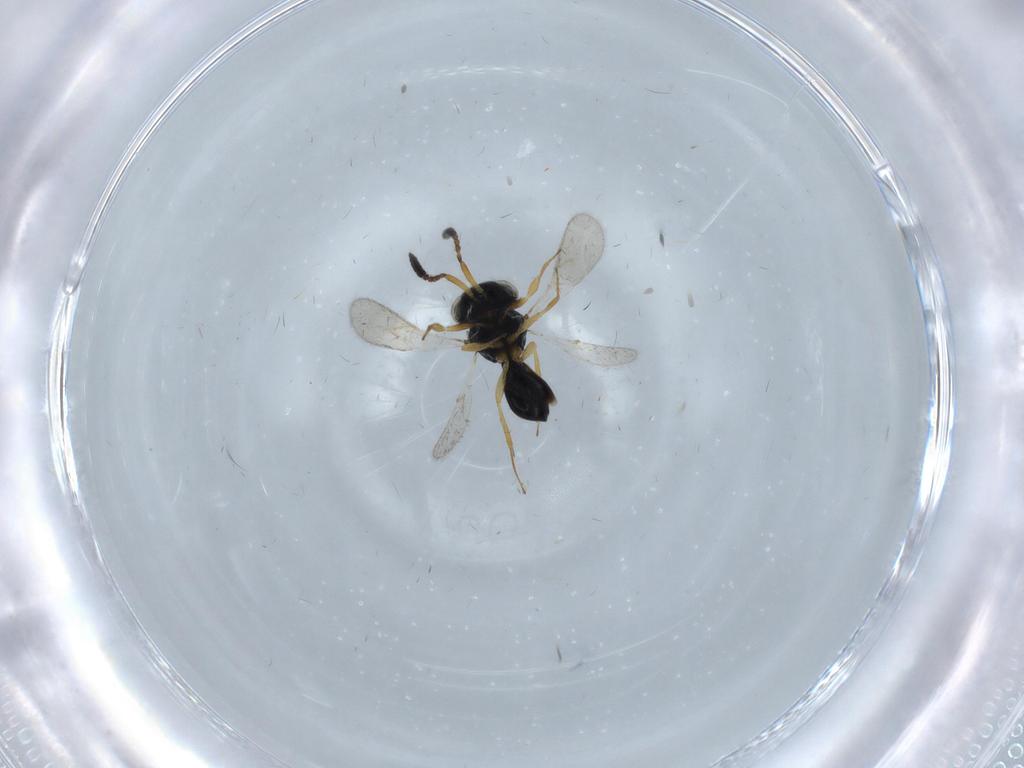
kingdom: Animalia
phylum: Arthropoda
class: Insecta
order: Hymenoptera
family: Scelionidae
